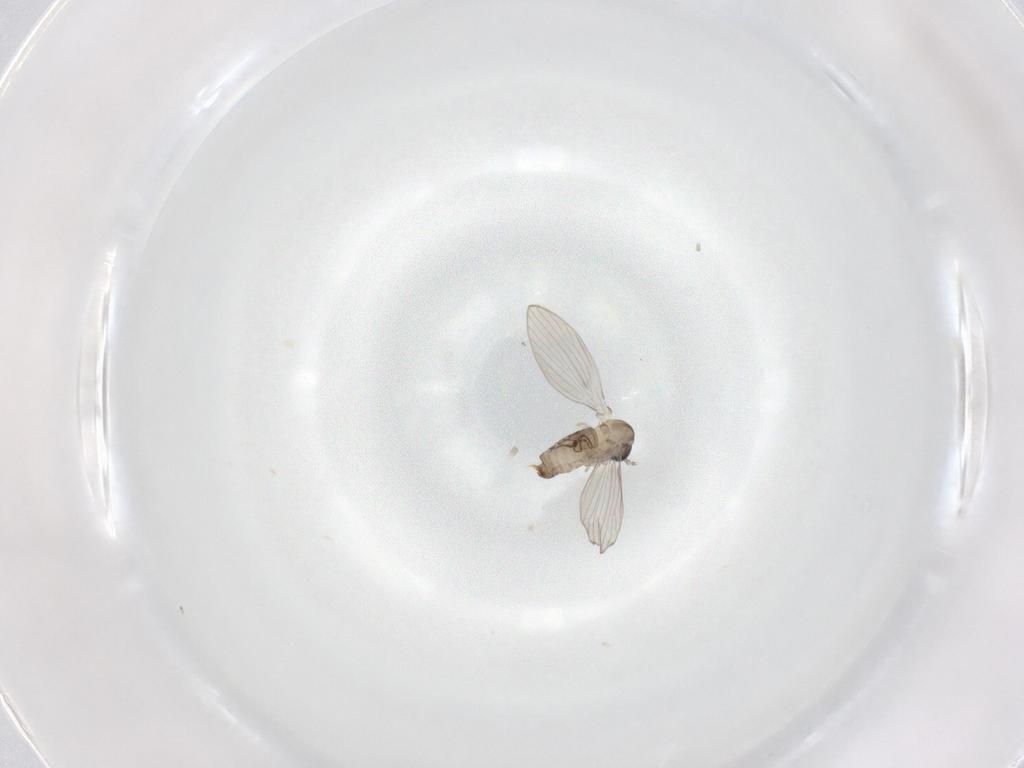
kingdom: Animalia
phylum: Arthropoda
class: Insecta
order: Diptera
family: Psychodidae
